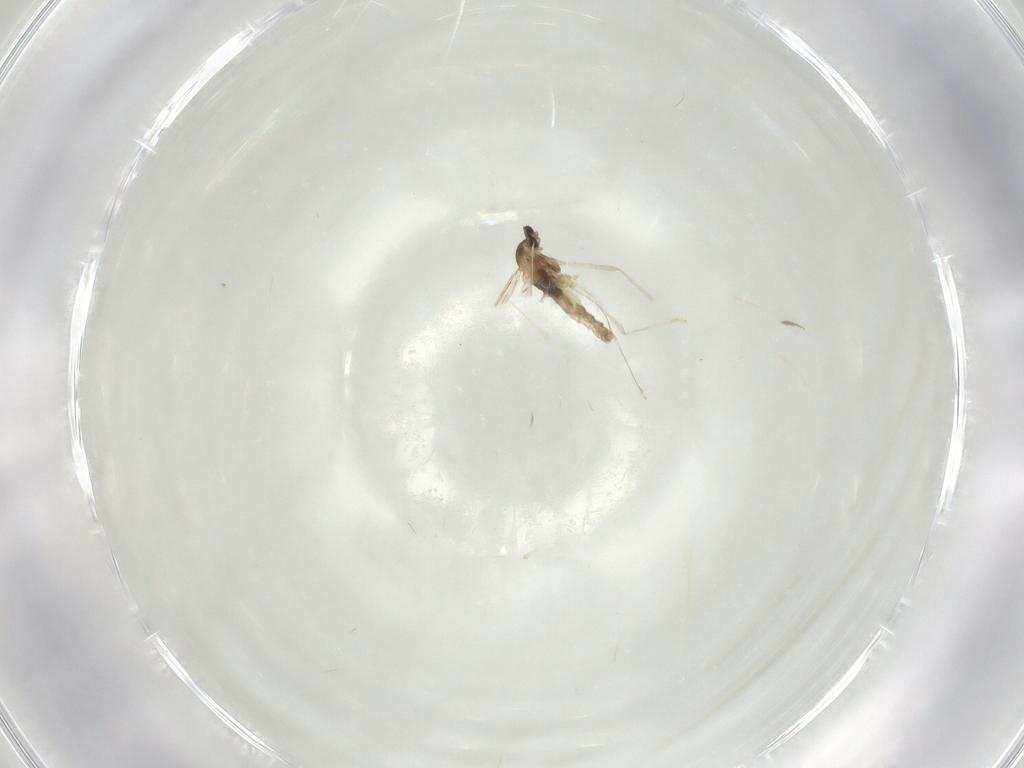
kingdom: Animalia
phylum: Arthropoda
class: Insecta
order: Diptera
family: Cecidomyiidae
